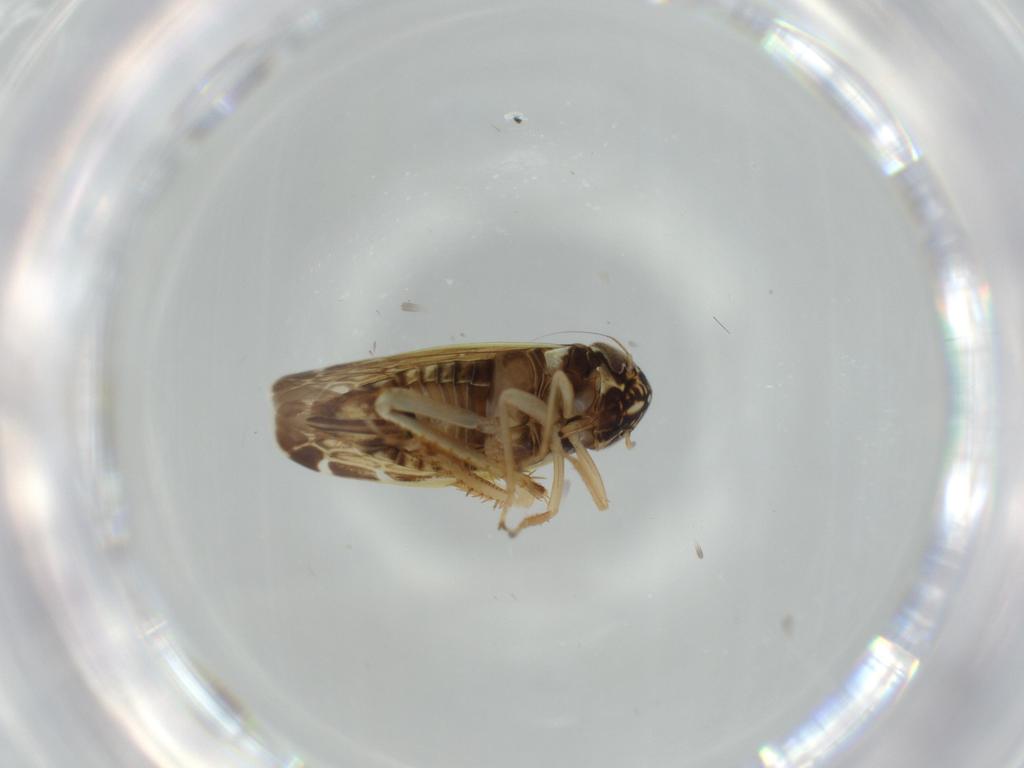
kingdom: Animalia
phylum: Arthropoda
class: Insecta
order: Hemiptera
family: Cicadellidae
